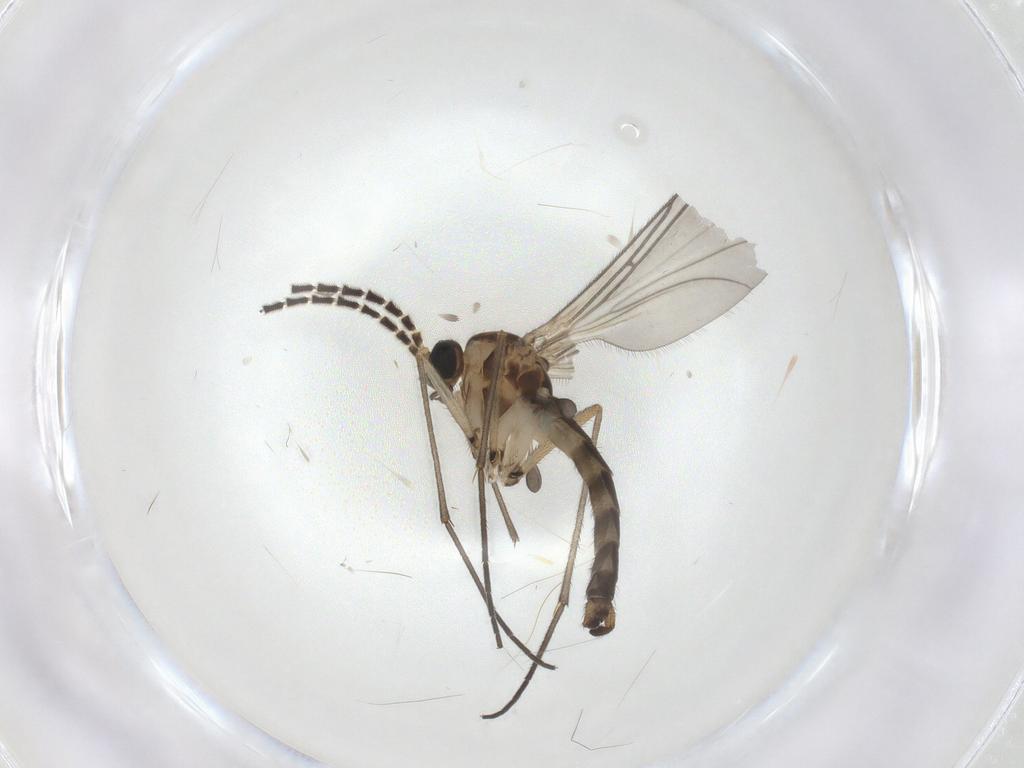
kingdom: Animalia
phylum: Arthropoda
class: Insecta
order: Diptera
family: Sciaridae
